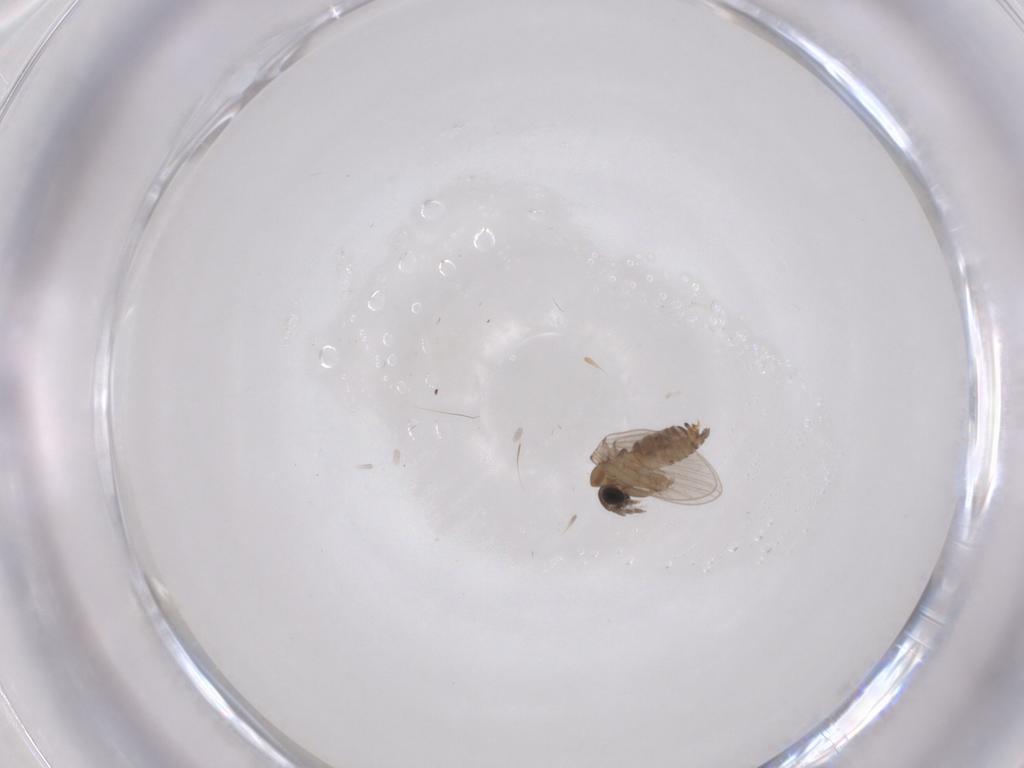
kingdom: Animalia
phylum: Arthropoda
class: Insecta
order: Diptera
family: Psychodidae
